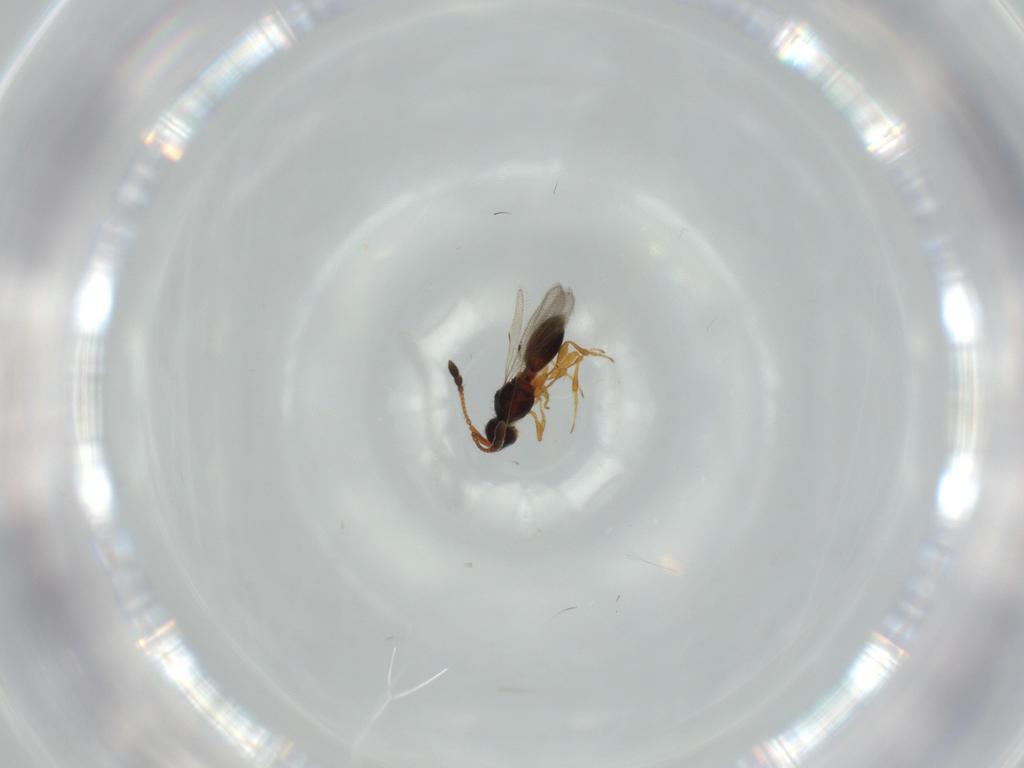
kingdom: Animalia
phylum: Arthropoda
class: Insecta
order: Hymenoptera
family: Diapriidae
